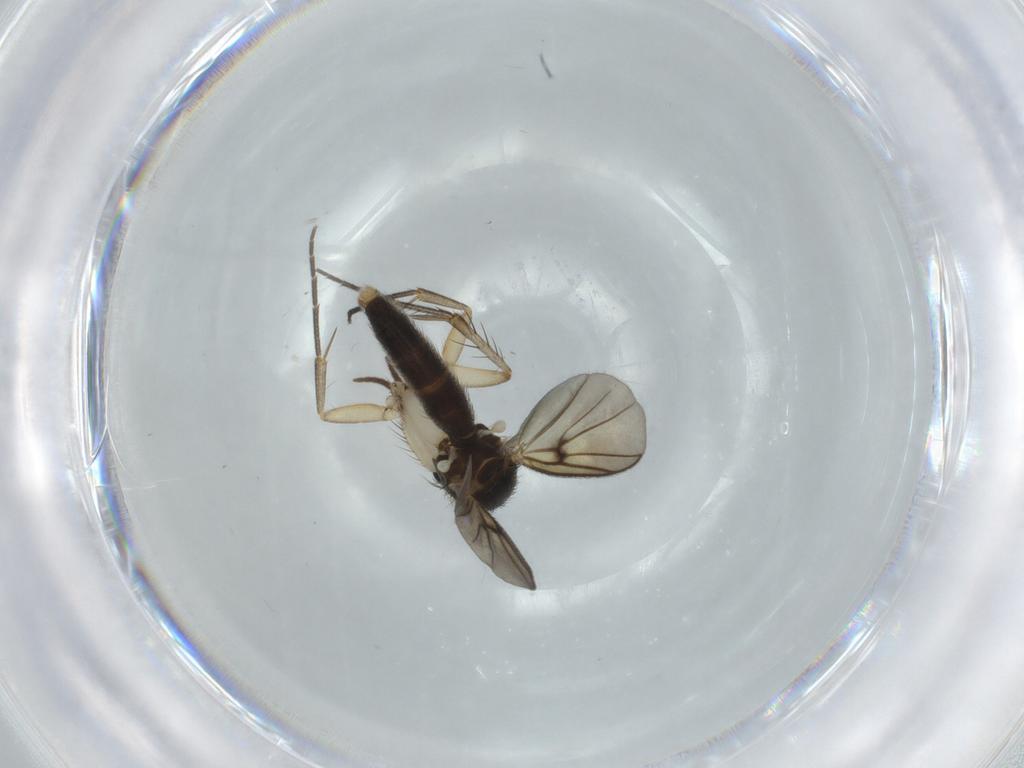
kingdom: Animalia
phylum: Arthropoda
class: Insecta
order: Diptera
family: Mycetophilidae
